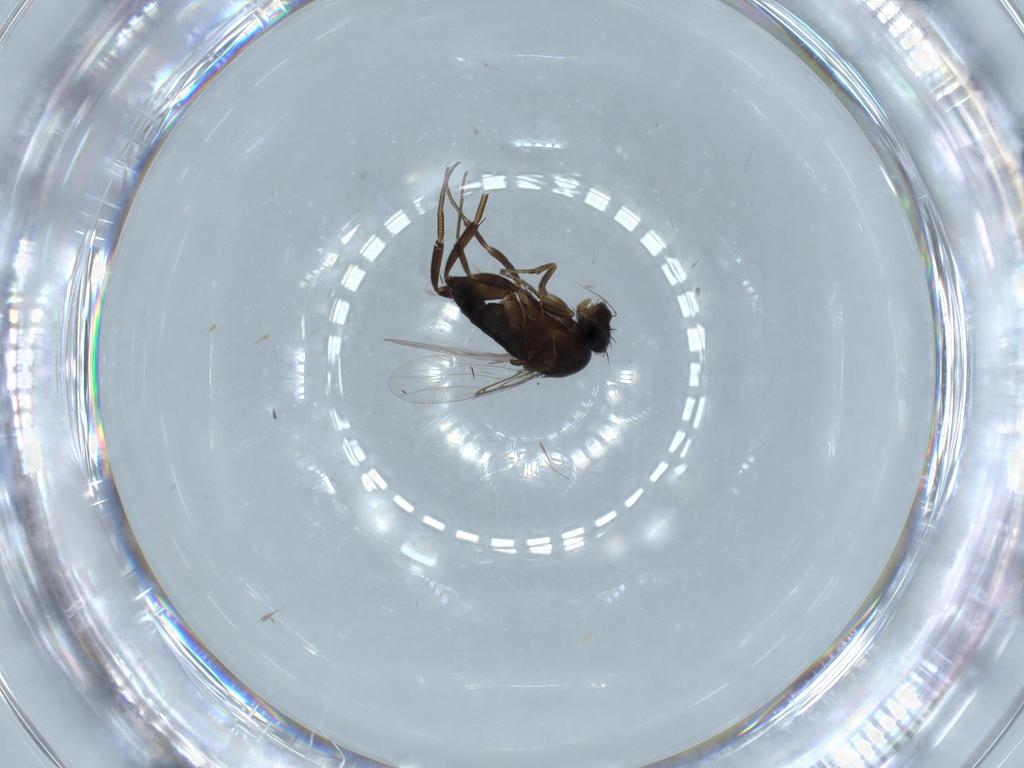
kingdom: Animalia
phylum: Arthropoda
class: Insecta
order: Diptera
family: Phoridae
